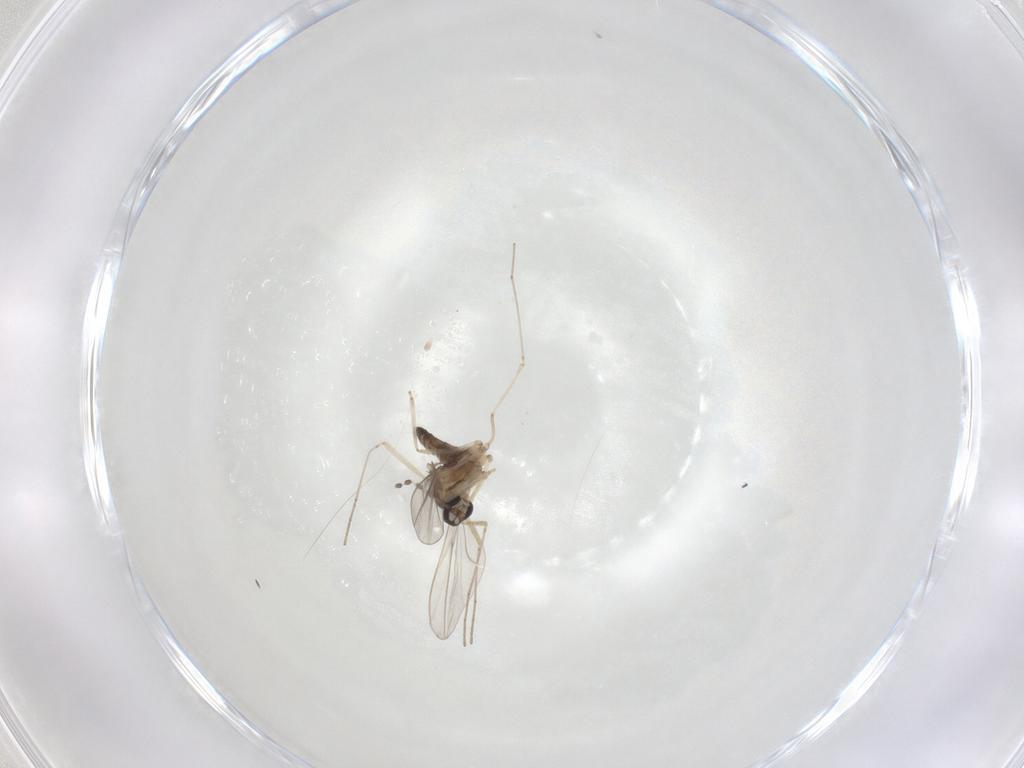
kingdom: Animalia
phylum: Arthropoda
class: Insecta
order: Diptera
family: Cecidomyiidae
